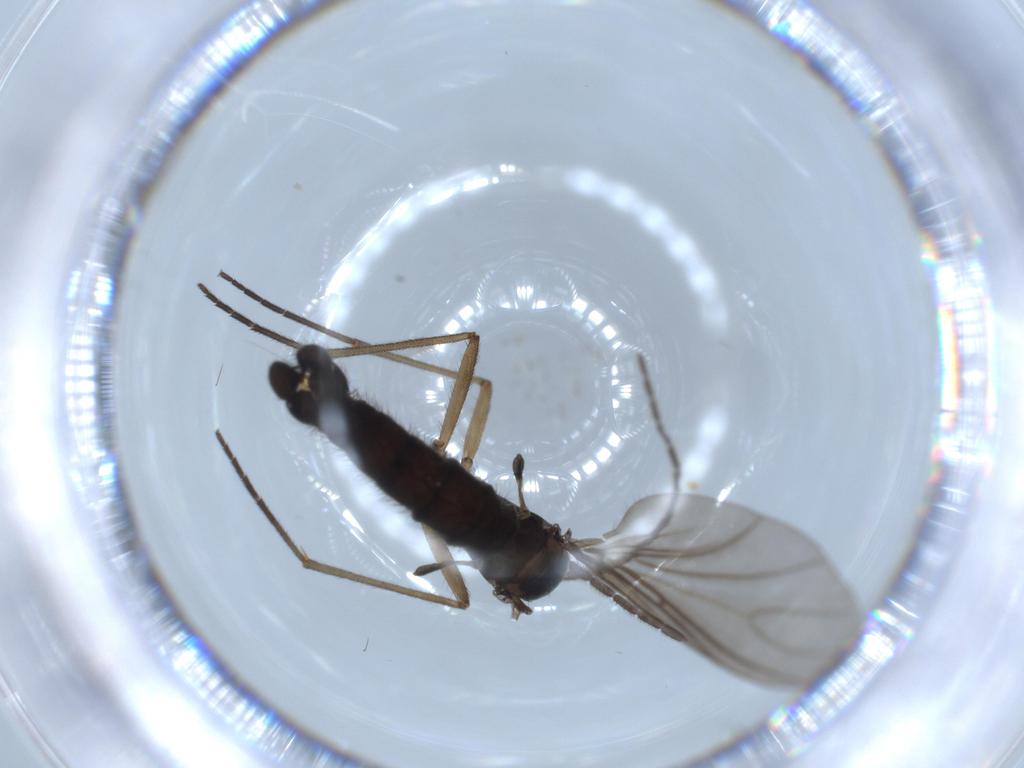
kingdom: Animalia
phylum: Arthropoda
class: Insecta
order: Diptera
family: Sciaridae
